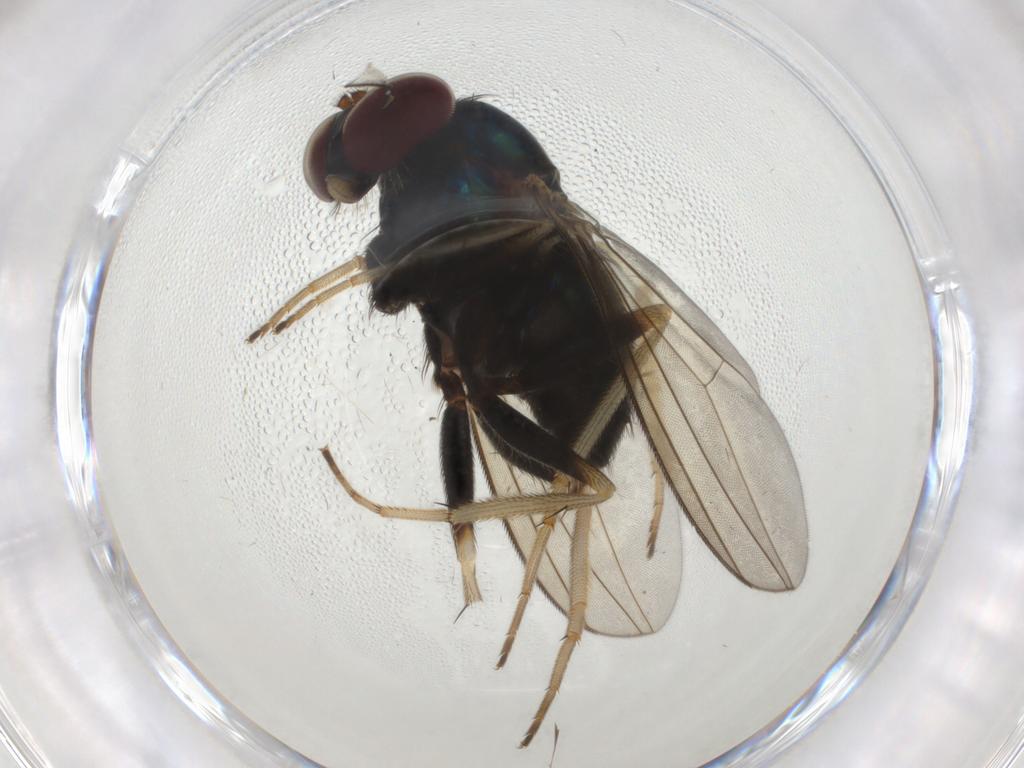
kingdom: Animalia
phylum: Arthropoda
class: Insecta
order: Diptera
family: Dolichopodidae
